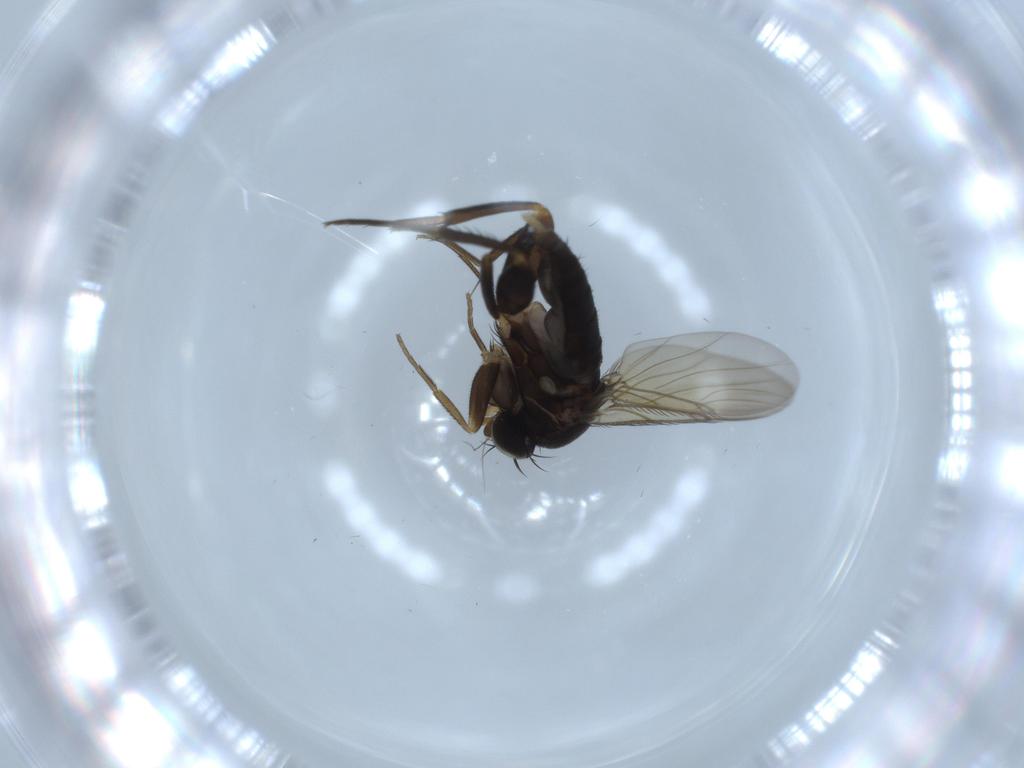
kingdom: Animalia
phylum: Arthropoda
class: Insecta
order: Diptera
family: Phoridae
